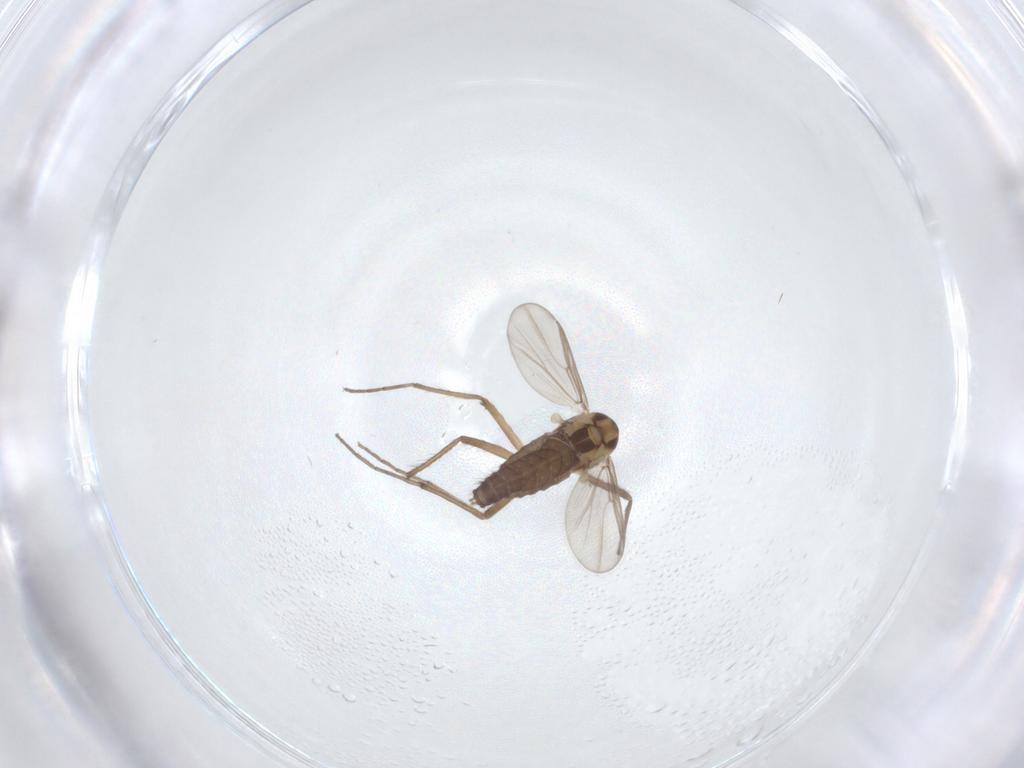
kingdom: Animalia
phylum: Arthropoda
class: Insecta
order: Diptera
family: Chironomidae
